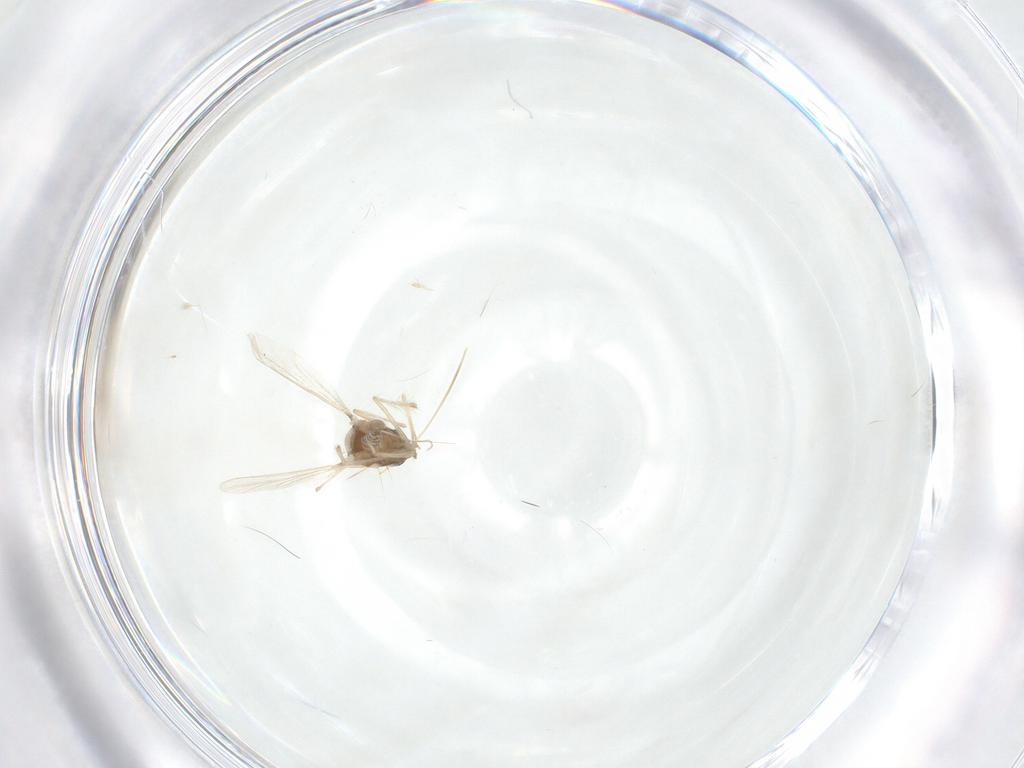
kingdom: Animalia
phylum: Arthropoda
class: Insecta
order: Diptera
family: Chironomidae
